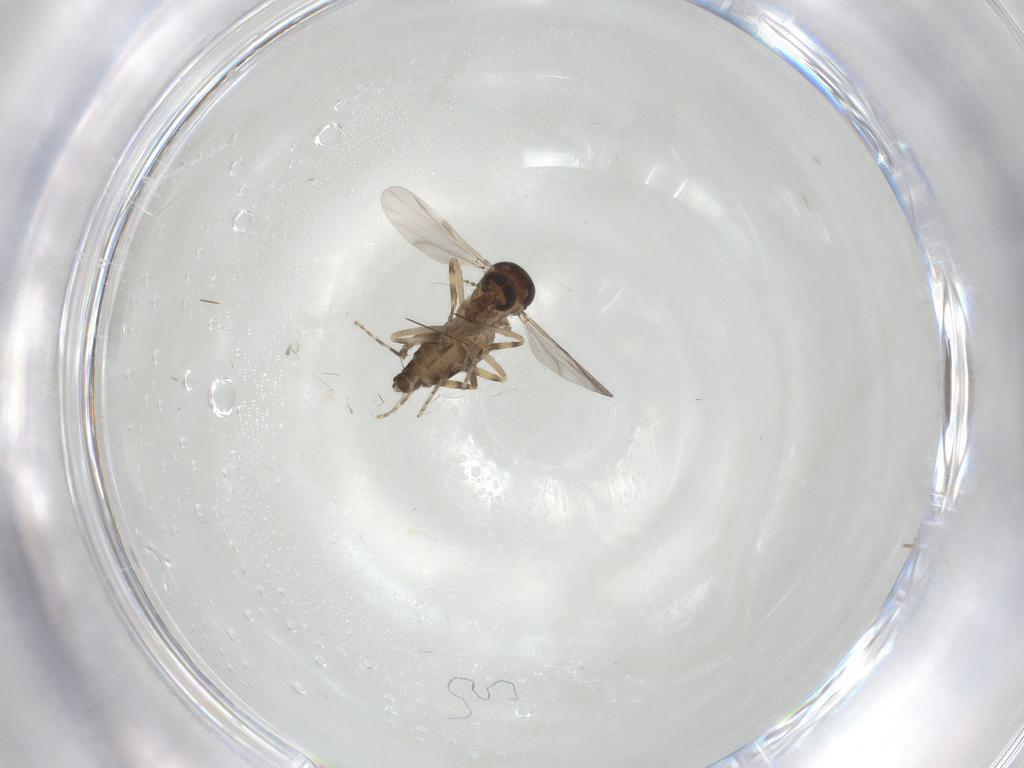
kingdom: Animalia
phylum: Arthropoda
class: Insecta
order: Diptera
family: Ceratopogonidae
